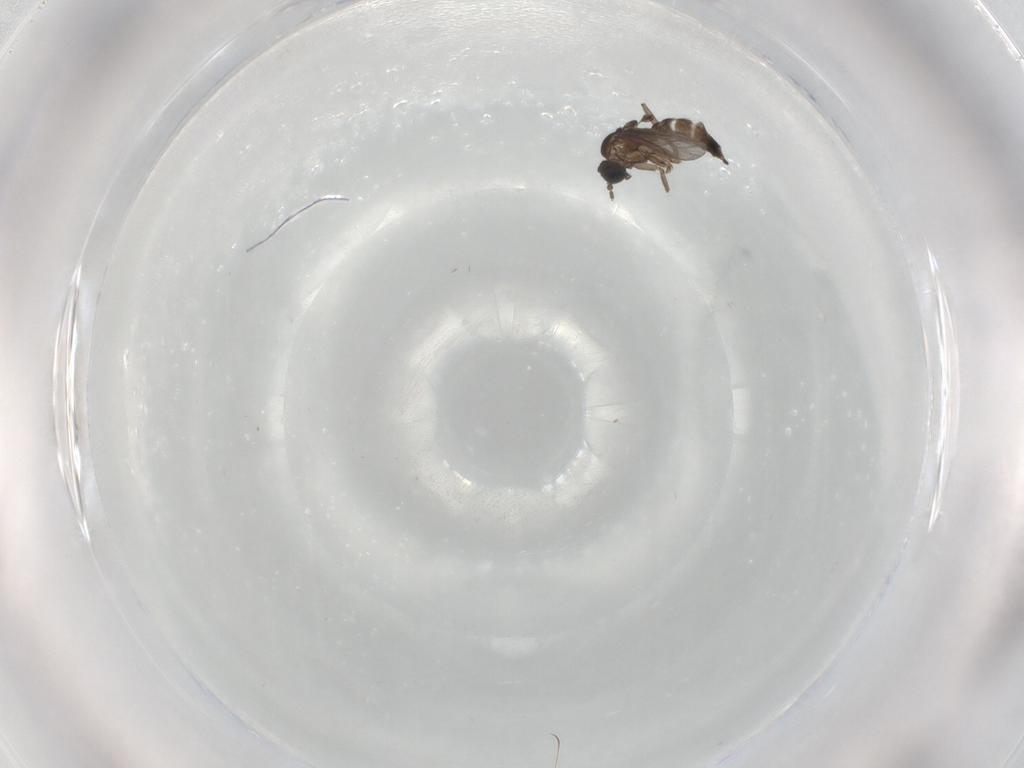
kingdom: Animalia
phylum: Arthropoda
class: Insecta
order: Diptera
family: Sciaridae
